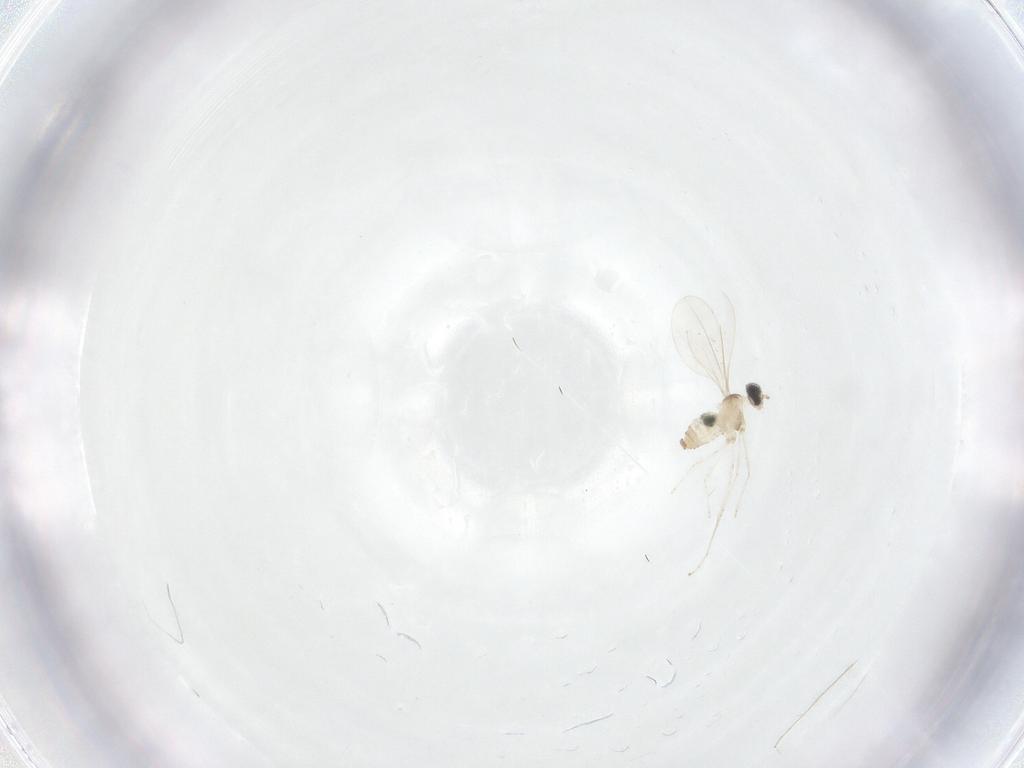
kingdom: Animalia
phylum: Arthropoda
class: Insecta
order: Diptera
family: Cecidomyiidae
